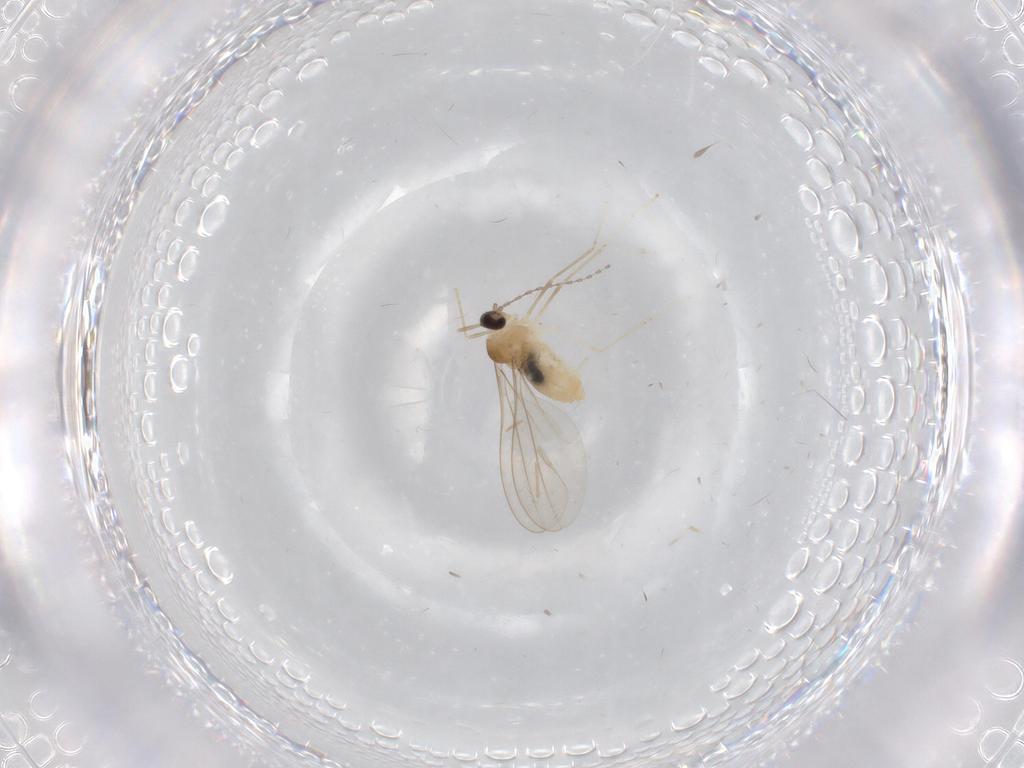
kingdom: Animalia
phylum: Arthropoda
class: Insecta
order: Diptera
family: Cecidomyiidae
